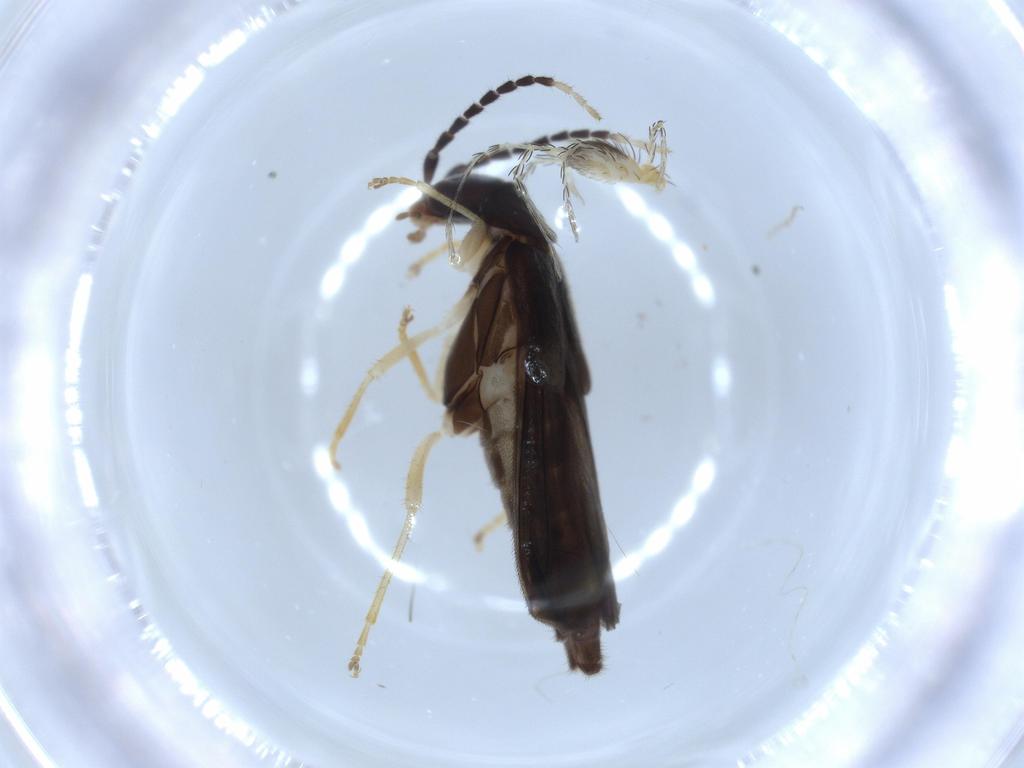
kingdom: Animalia
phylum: Arthropoda
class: Insecta
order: Coleoptera
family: Cantharidae
